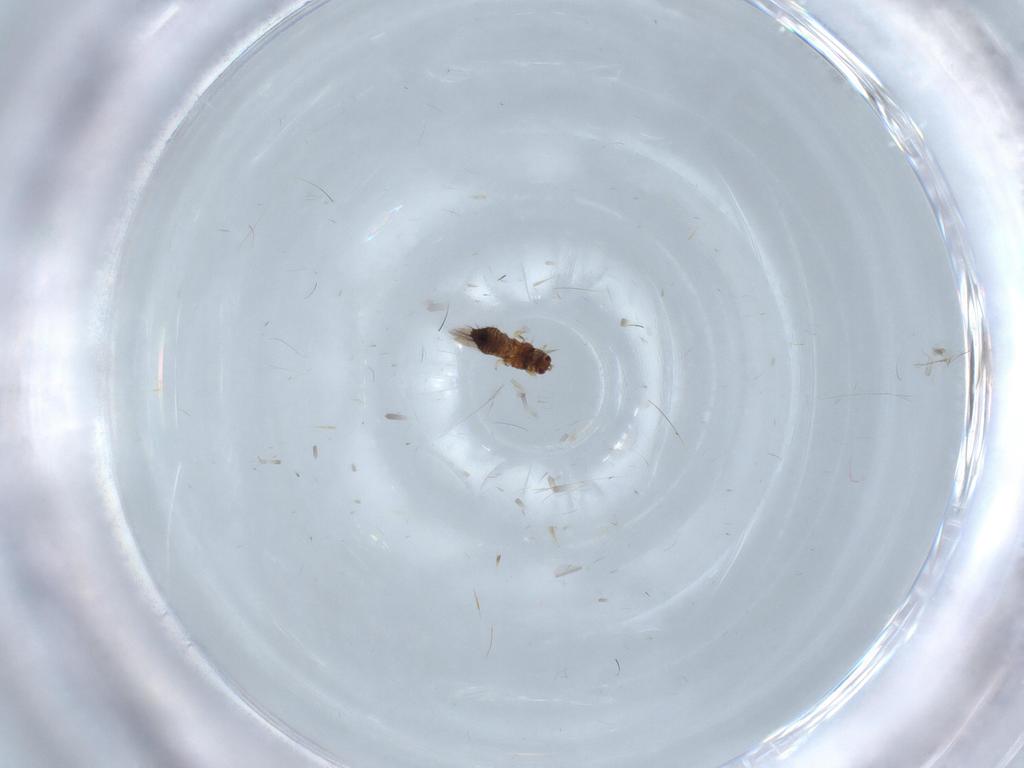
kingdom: Animalia
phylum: Arthropoda
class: Insecta
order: Thysanoptera
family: Thripidae
